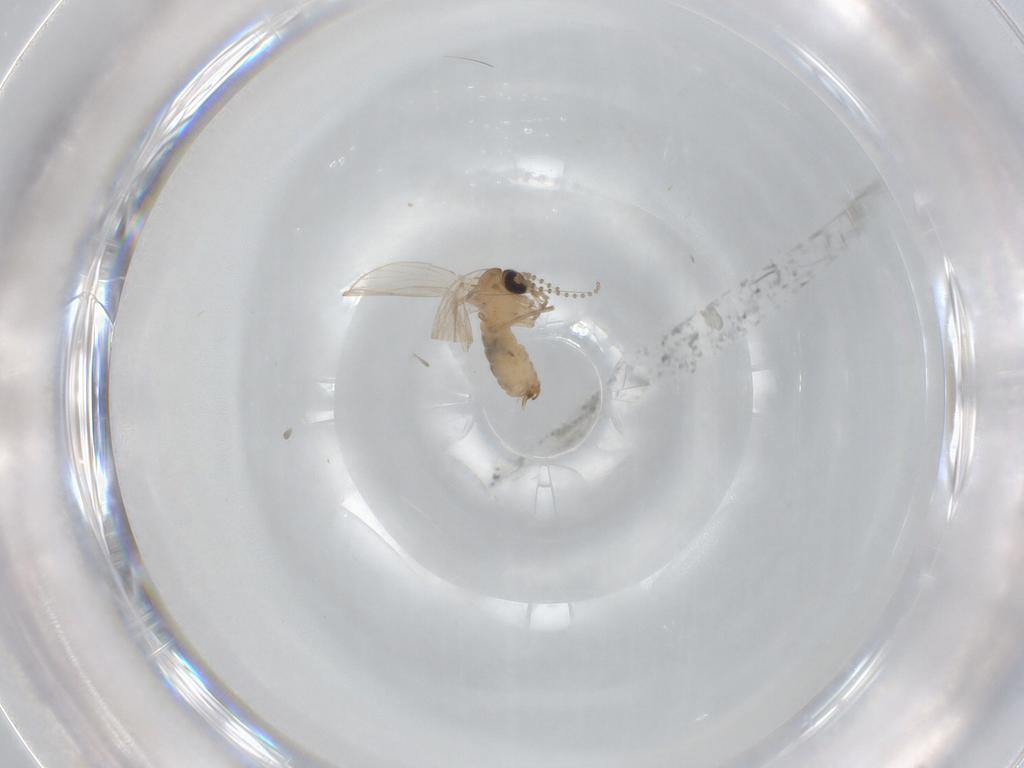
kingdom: Animalia
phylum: Arthropoda
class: Insecta
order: Diptera
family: Psychodidae
